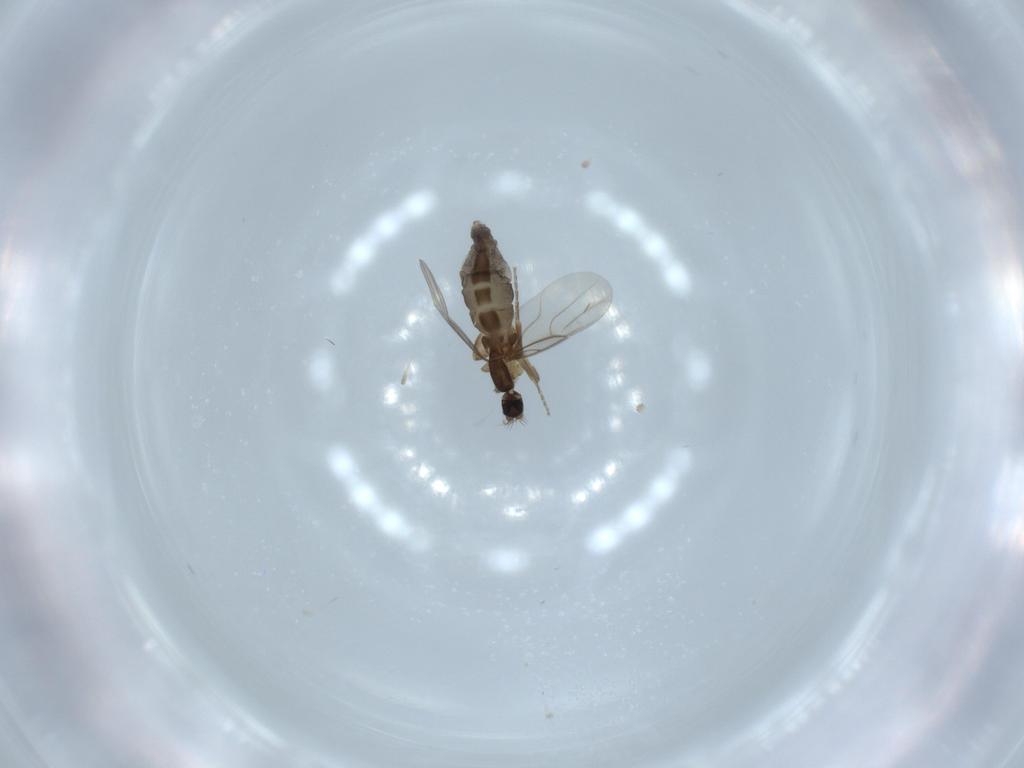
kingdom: Animalia
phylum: Arthropoda
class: Insecta
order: Diptera
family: Phoridae
